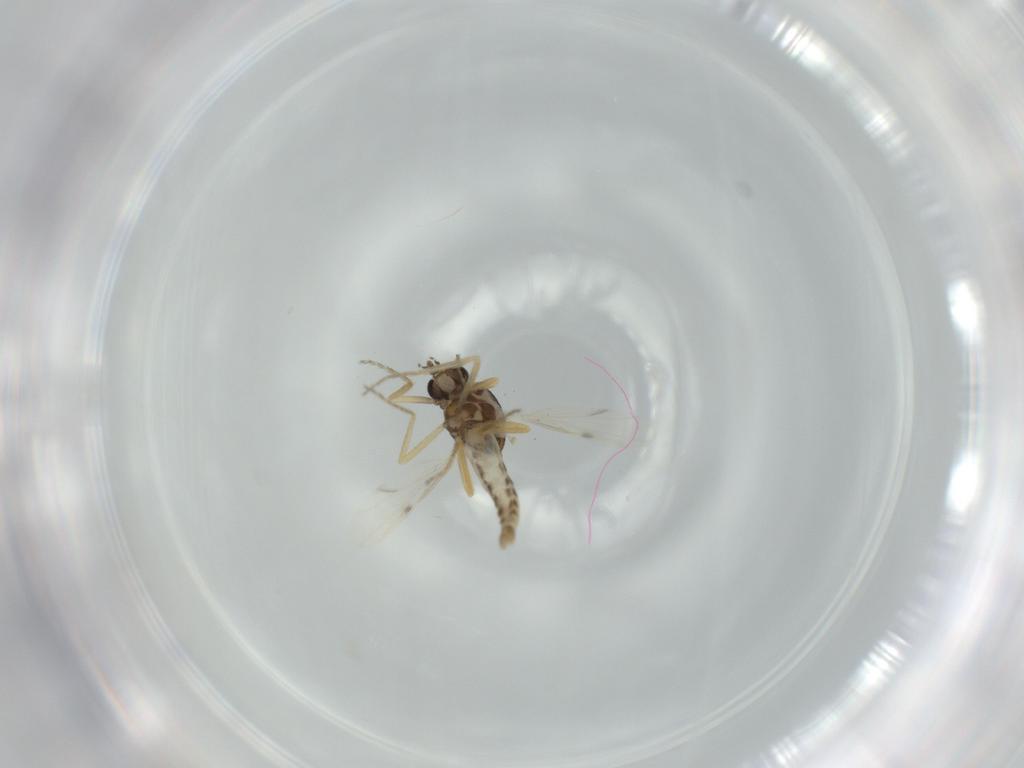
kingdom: Animalia
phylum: Arthropoda
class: Insecta
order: Diptera
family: Ceratopogonidae
